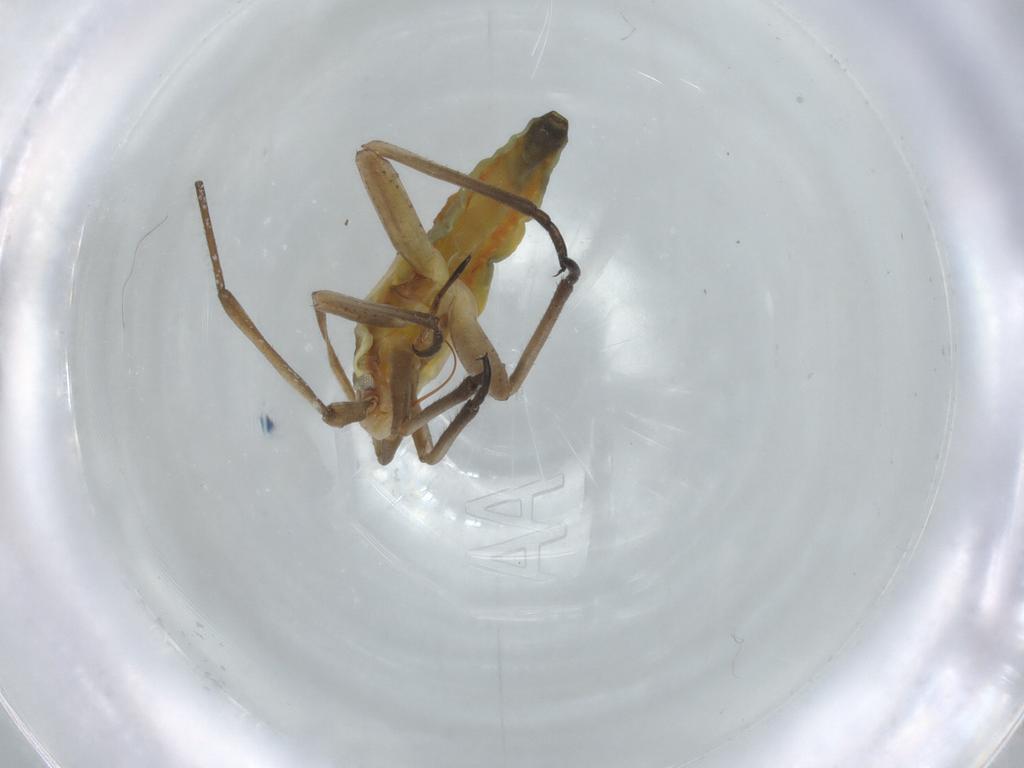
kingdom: Animalia
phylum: Arthropoda
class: Insecta
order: Hemiptera
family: Miridae
